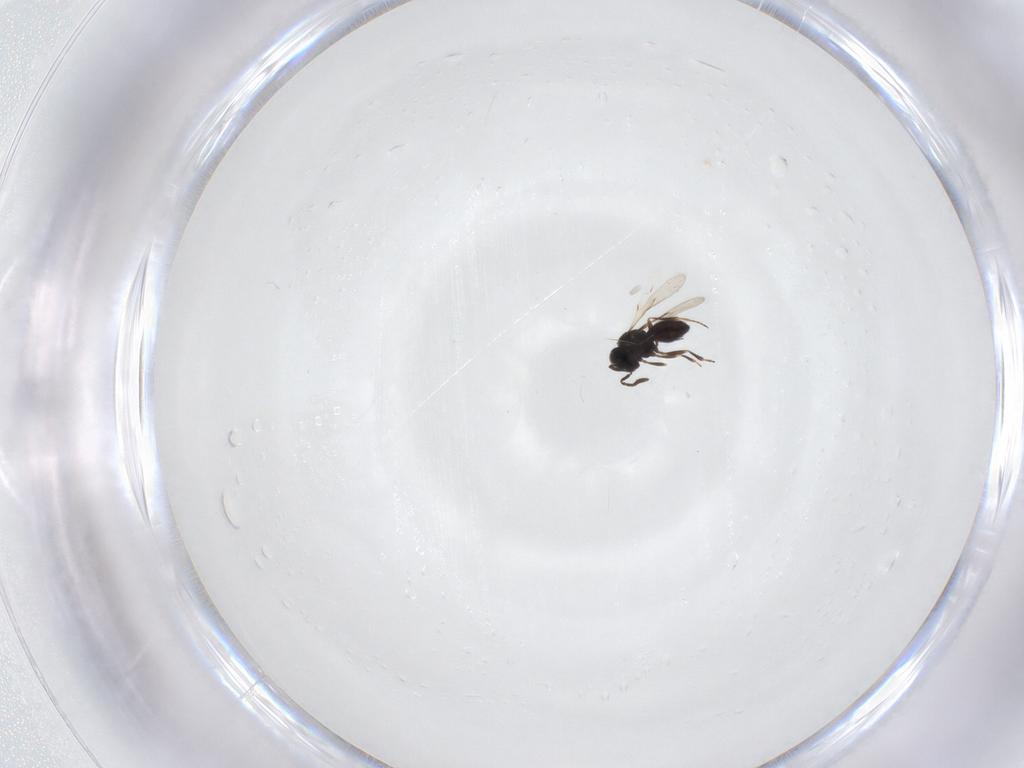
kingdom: Animalia
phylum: Arthropoda
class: Insecta
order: Hymenoptera
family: Scelionidae
